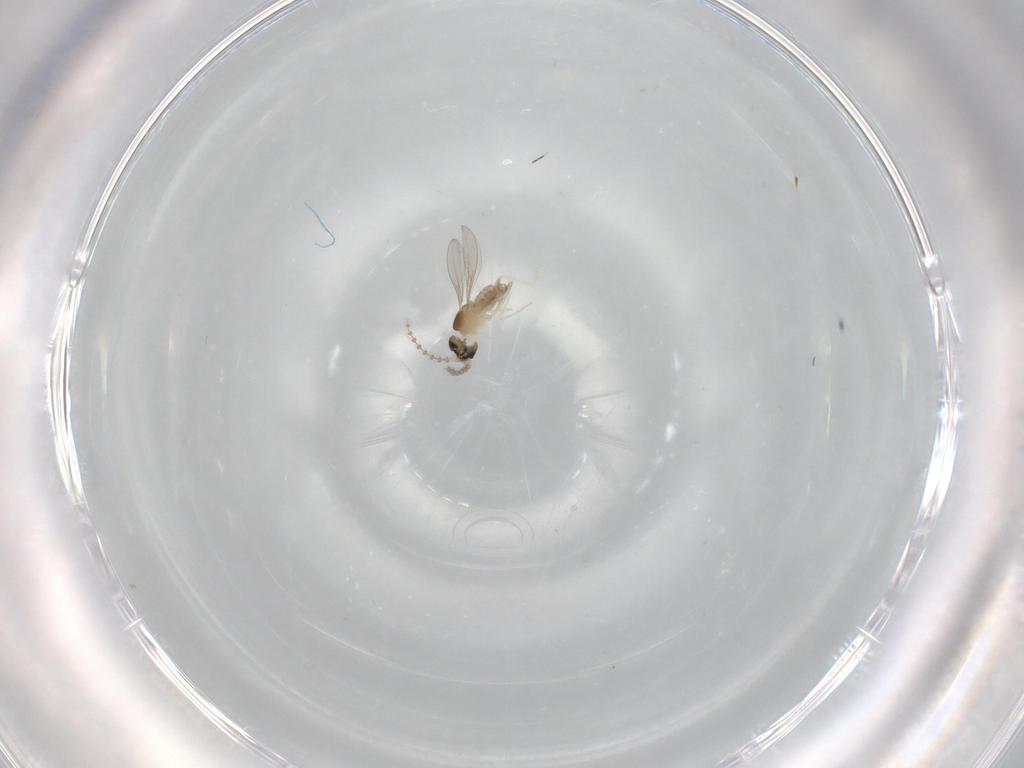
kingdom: Animalia
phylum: Arthropoda
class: Insecta
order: Diptera
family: Cecidomyiidae
